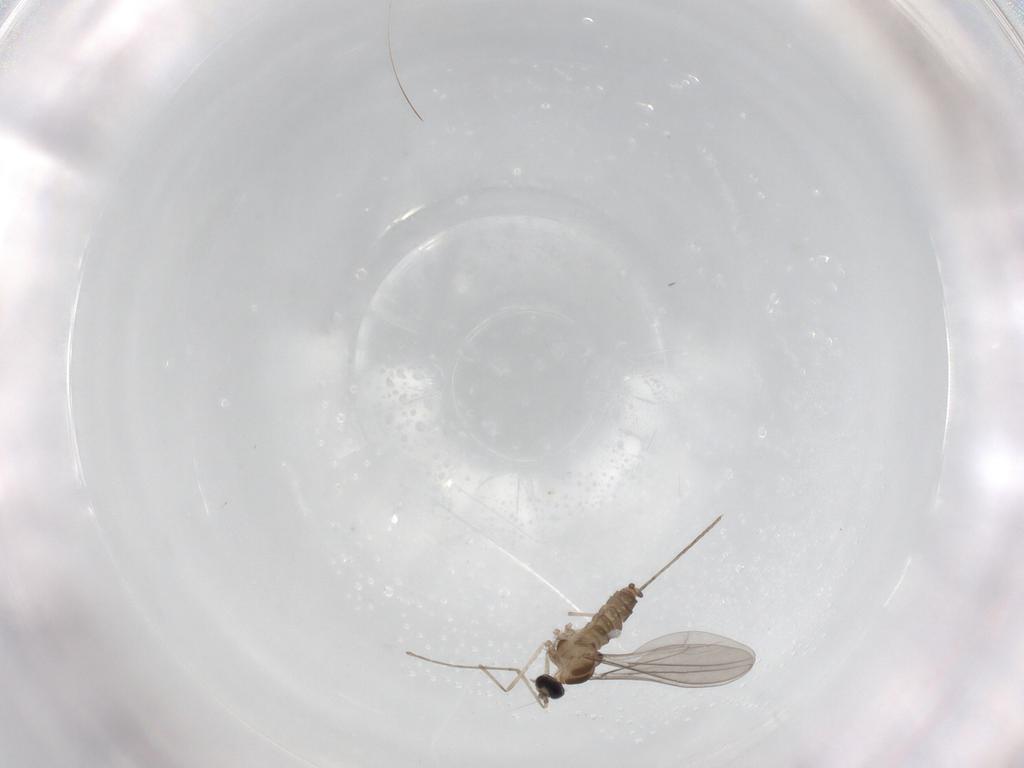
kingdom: Animalia
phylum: Arthropoda
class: Insecta
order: Diptera
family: Cecidomyiidae
